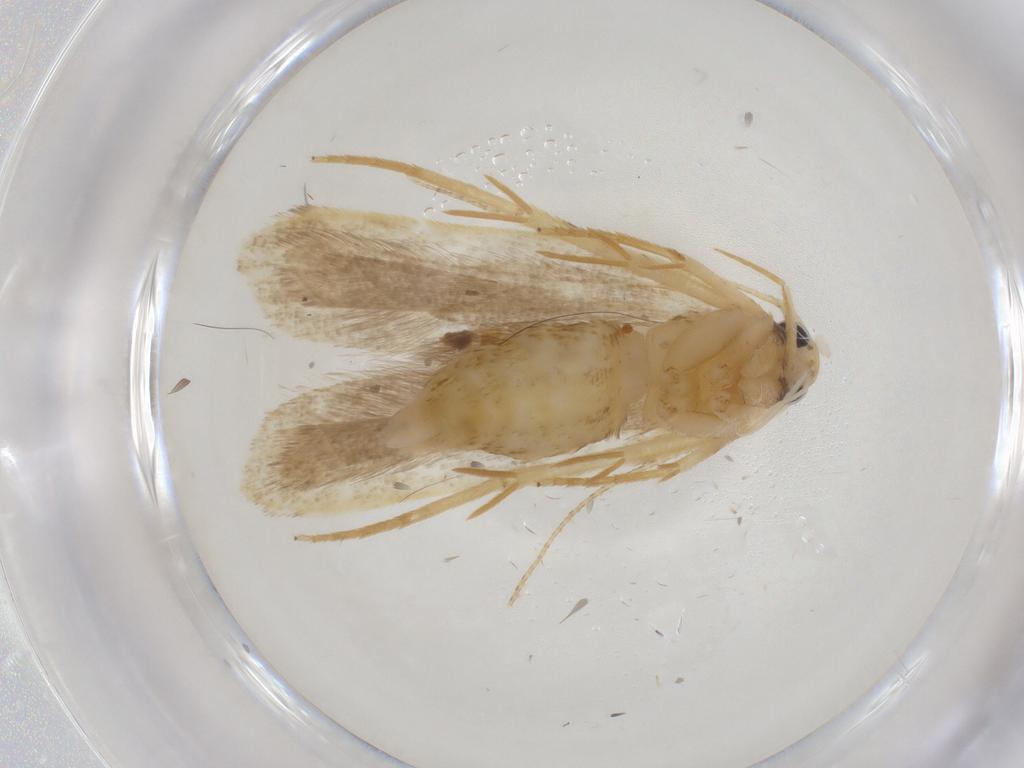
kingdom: Animalia
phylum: Arthropoda
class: Insecta
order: Lepidoptera
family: Gelechiidae
